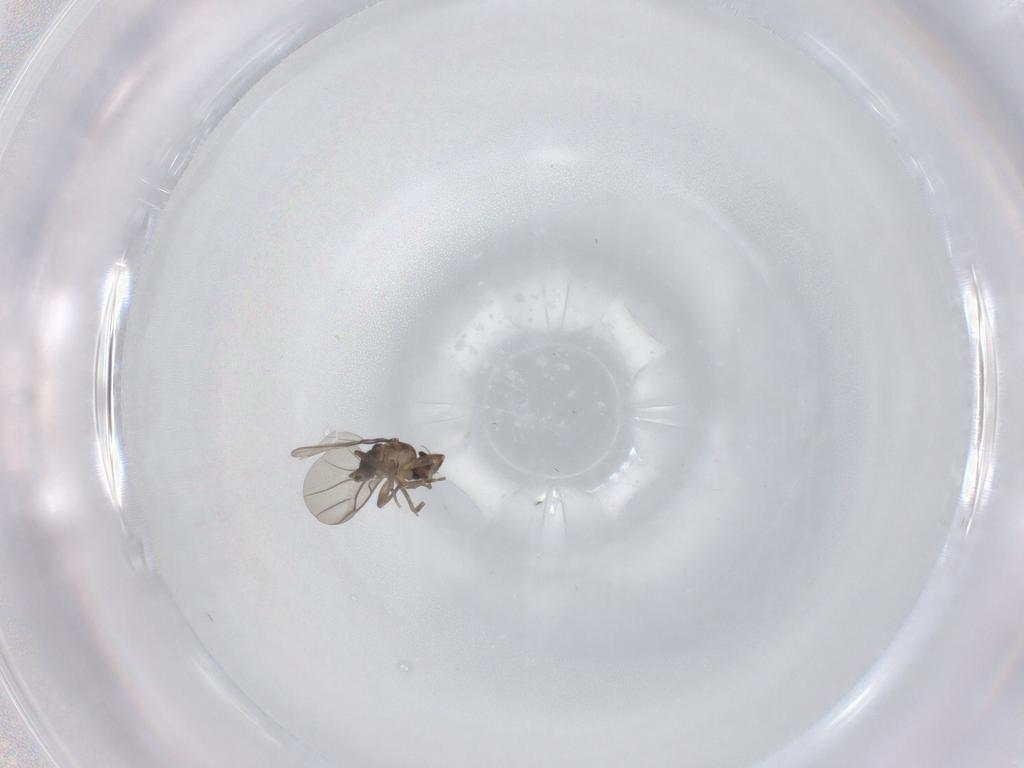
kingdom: Animalia
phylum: Arthropoda
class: Insecta
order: Diptera
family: Phoridae
